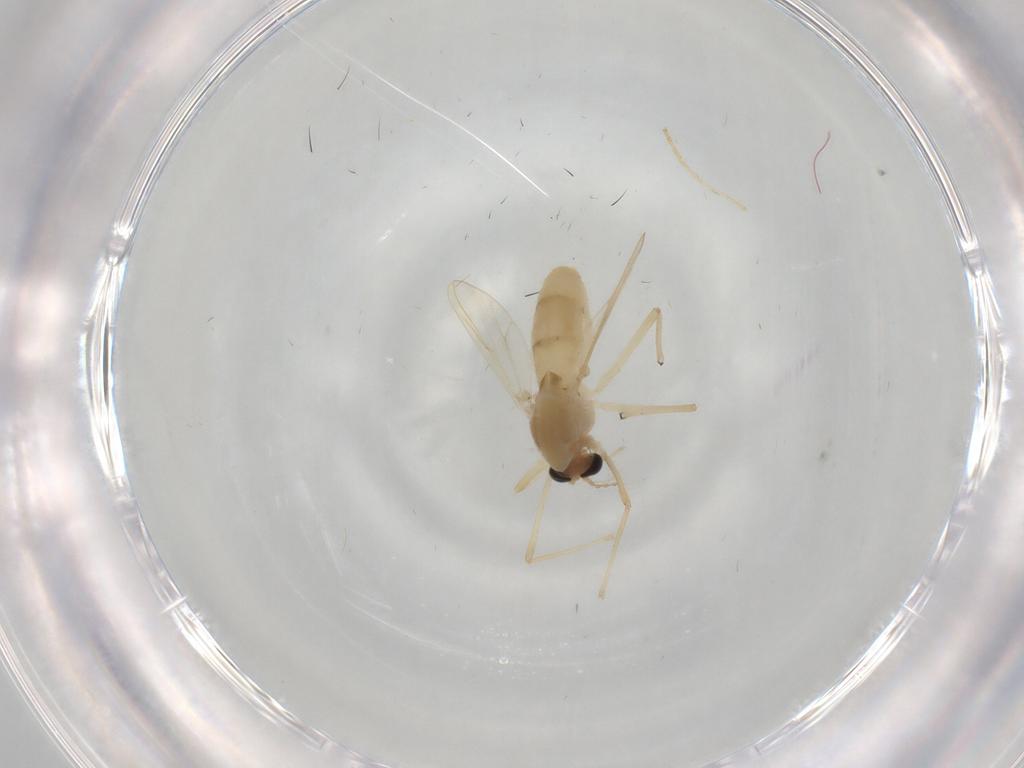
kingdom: Animalia
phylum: Arthropoda
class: Insecta
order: Diptera
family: Chironomidae
